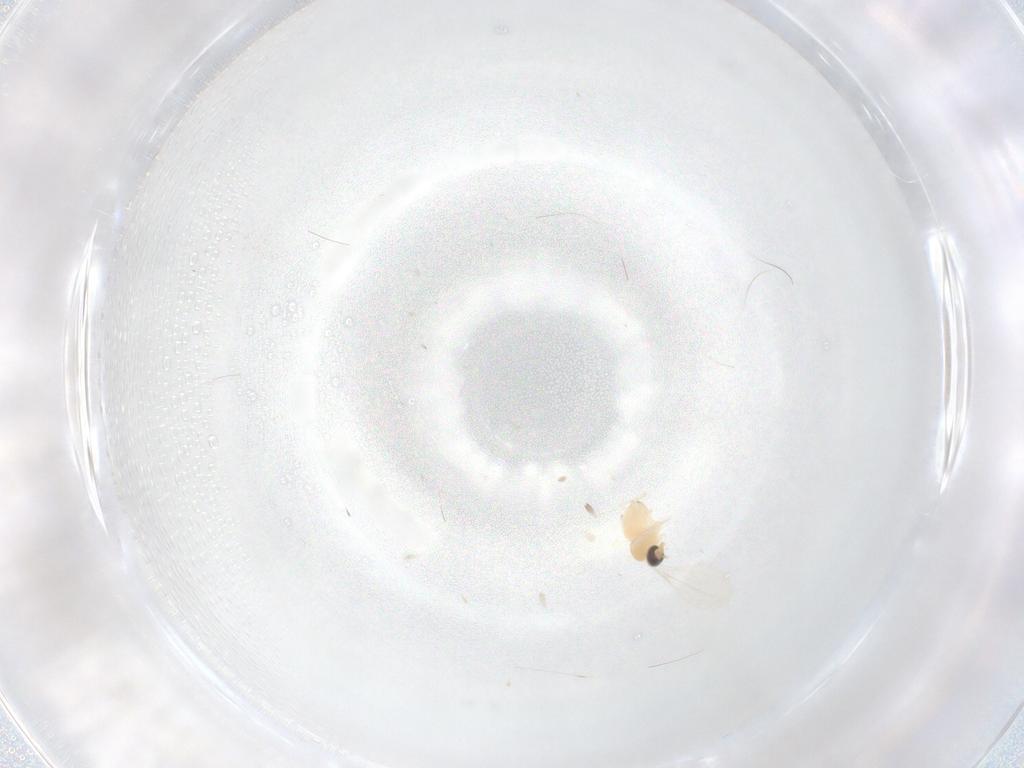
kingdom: Animalia
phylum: Arthropoda
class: Insecta
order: Diptera
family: Cecidomyiidae
